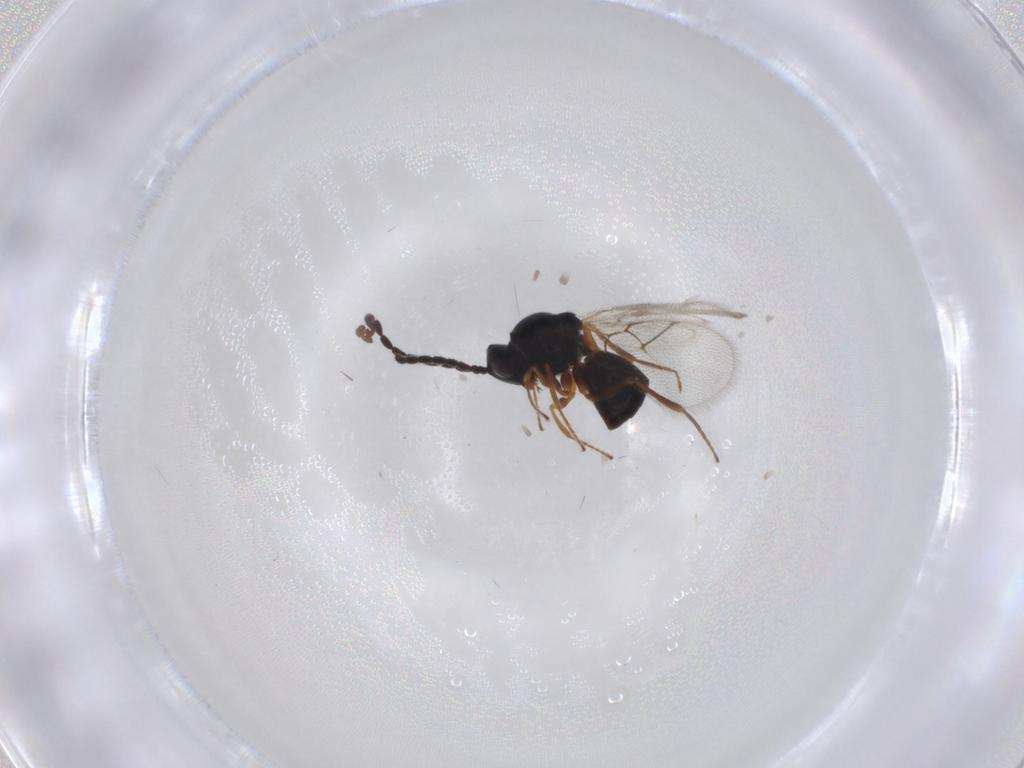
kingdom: Animalia
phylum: Arthropoda
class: Insecta
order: Hymenoptera
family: Figitidae
